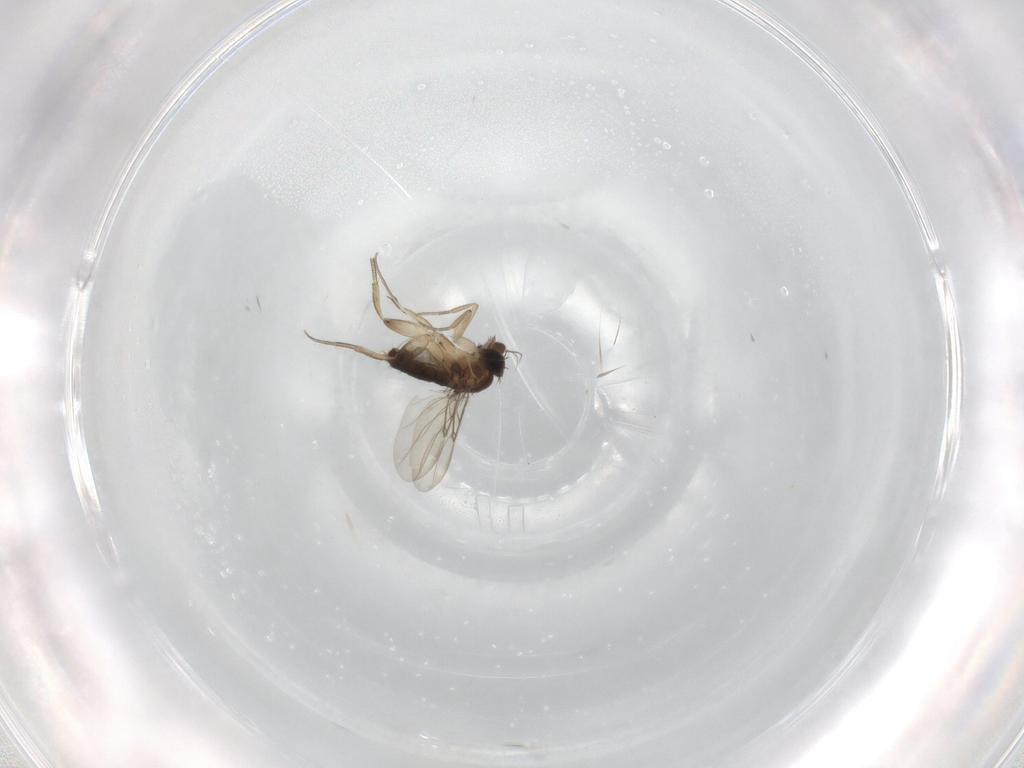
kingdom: Animalia
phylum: Arthropoda
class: Insecta
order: Diptera
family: Phoridae
